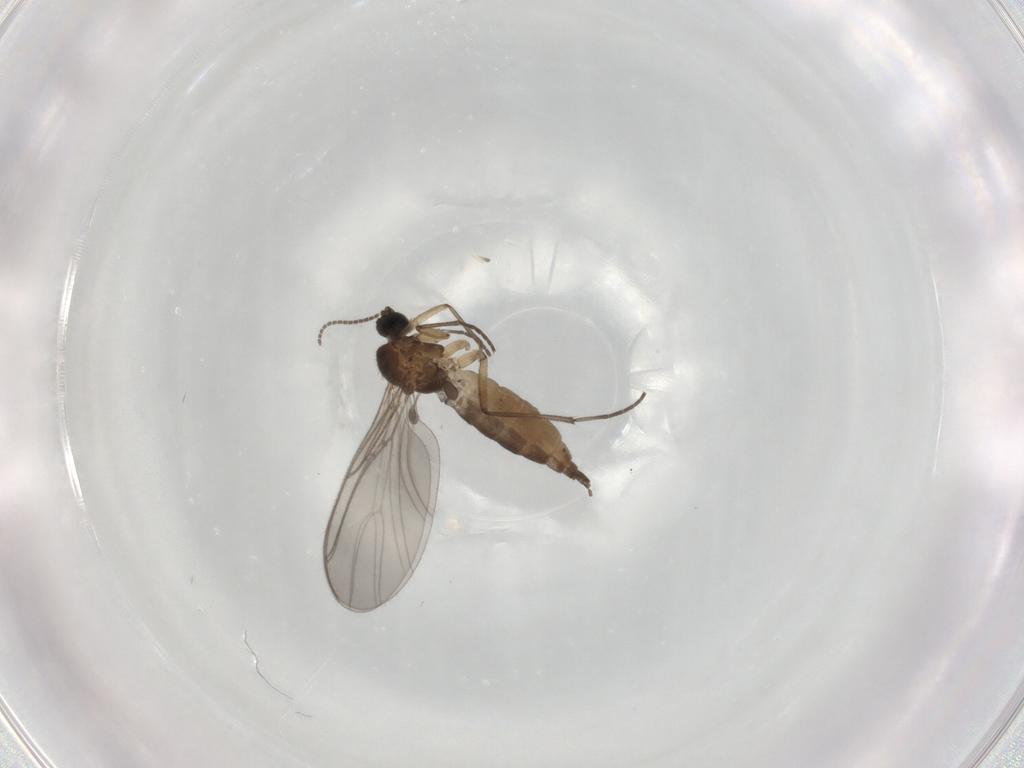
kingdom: Animalia
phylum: Arthropoda
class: Insecta
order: Diptera
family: Sciaridae
